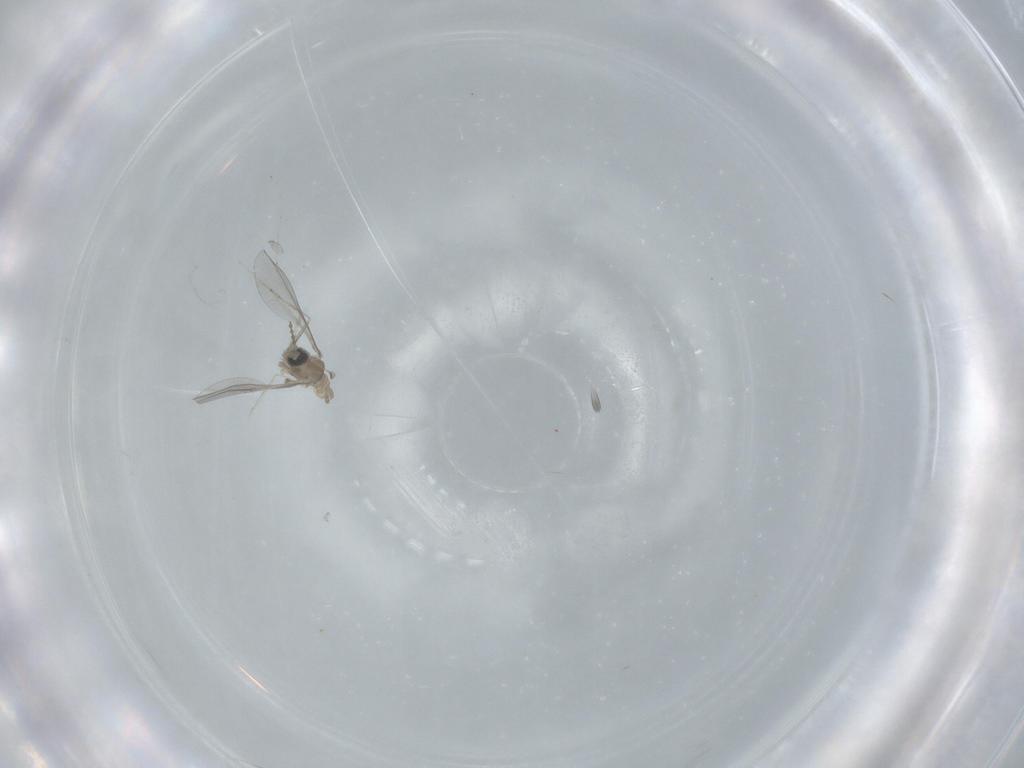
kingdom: Animalia
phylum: Arthropoda
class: Insecta
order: Diptera
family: Cecidomyiidae
